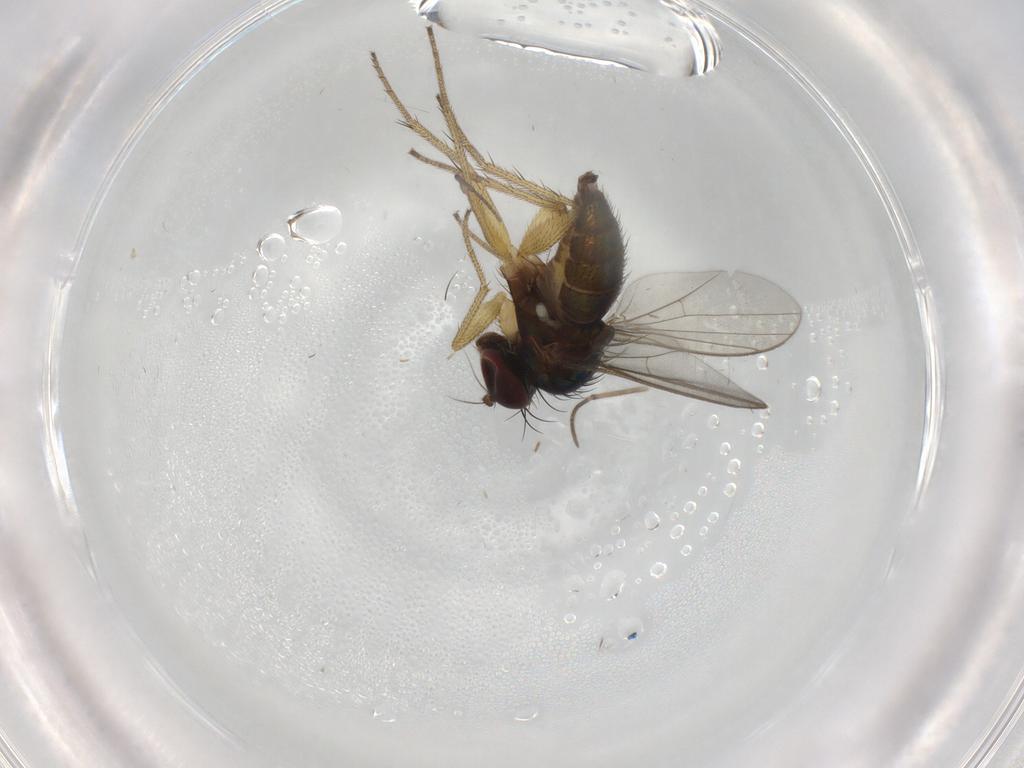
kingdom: Animalia
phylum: Arthropoda
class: Insecta
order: Diptera
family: Dolichopodidae
